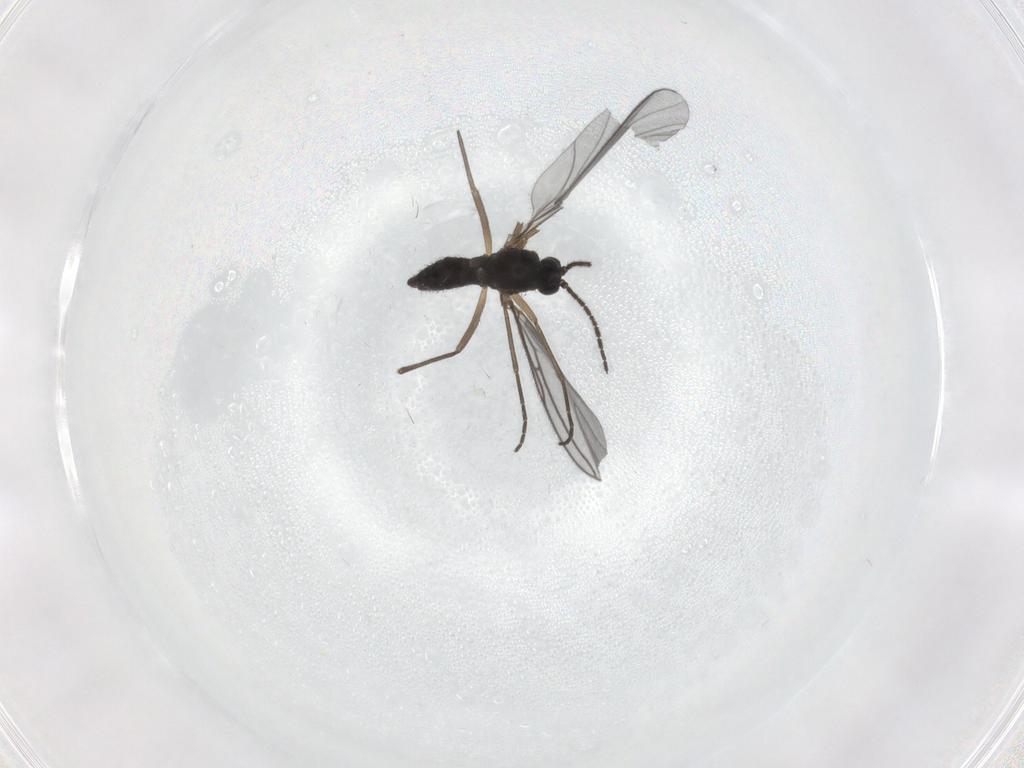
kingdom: Animalia
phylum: Arthropoda
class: Insecta
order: Diptera
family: Sciaridae
